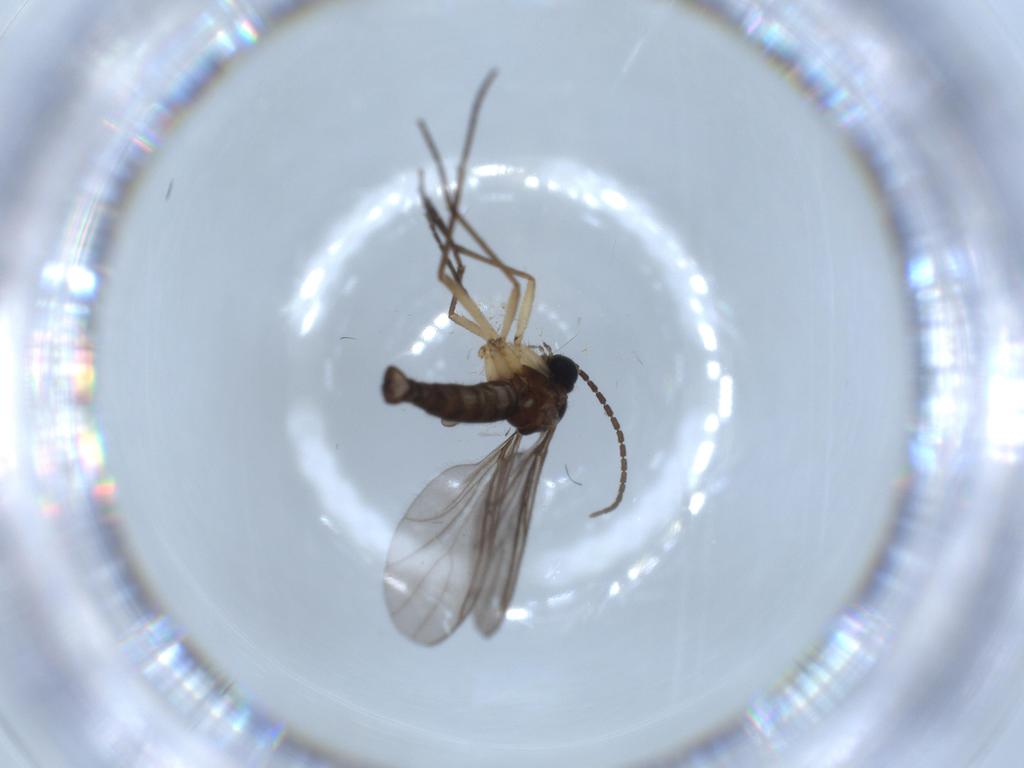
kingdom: Animalia
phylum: Arthropoda
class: Insecta
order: Diptera
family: Sciaridae
